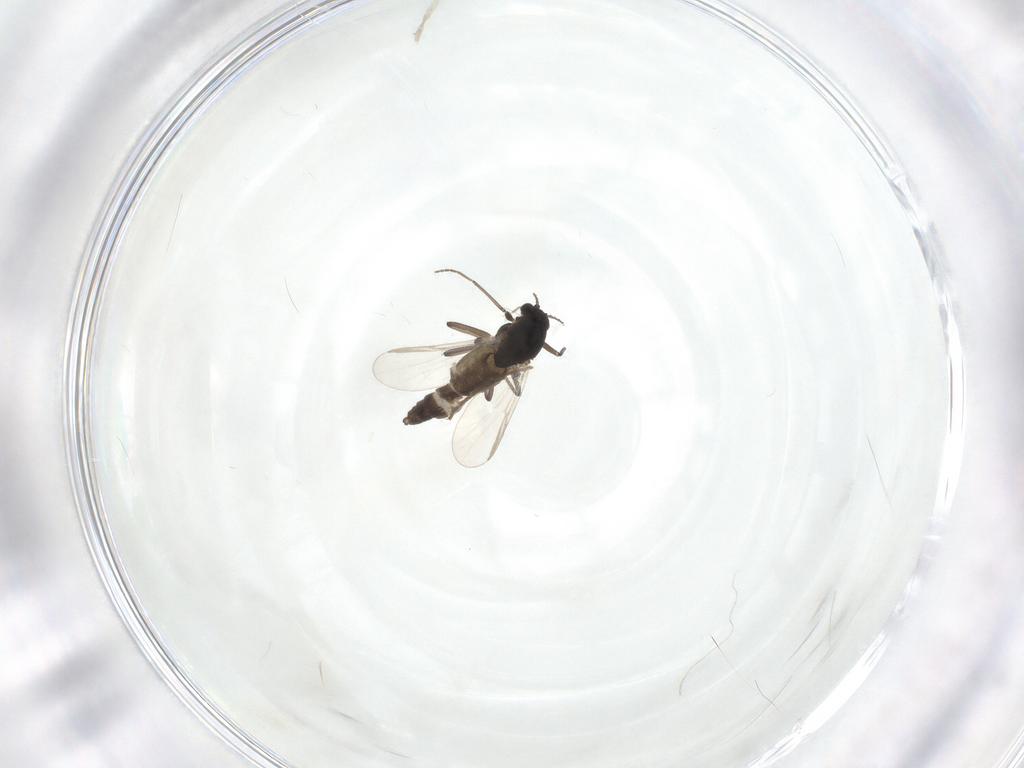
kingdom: Animalia
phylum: Arthropoda
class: Insecta
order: Diptera
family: Chironomidae
